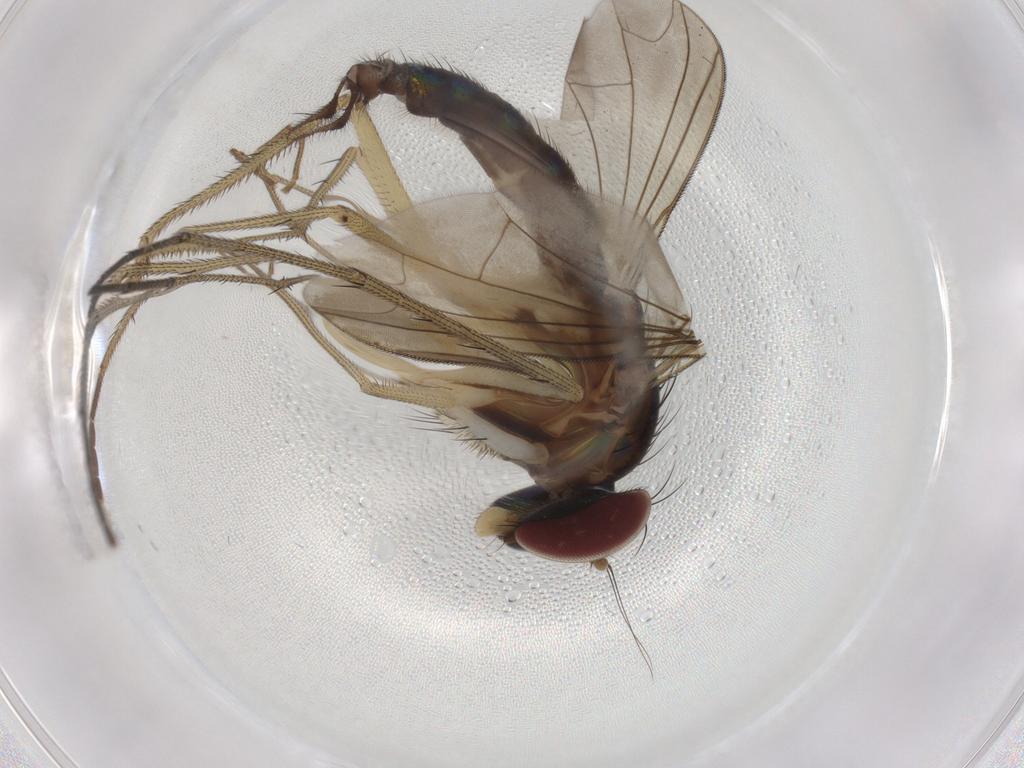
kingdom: Animalia
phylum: Arthropoda
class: Insecta
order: Diptera
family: Dolichopodidae
